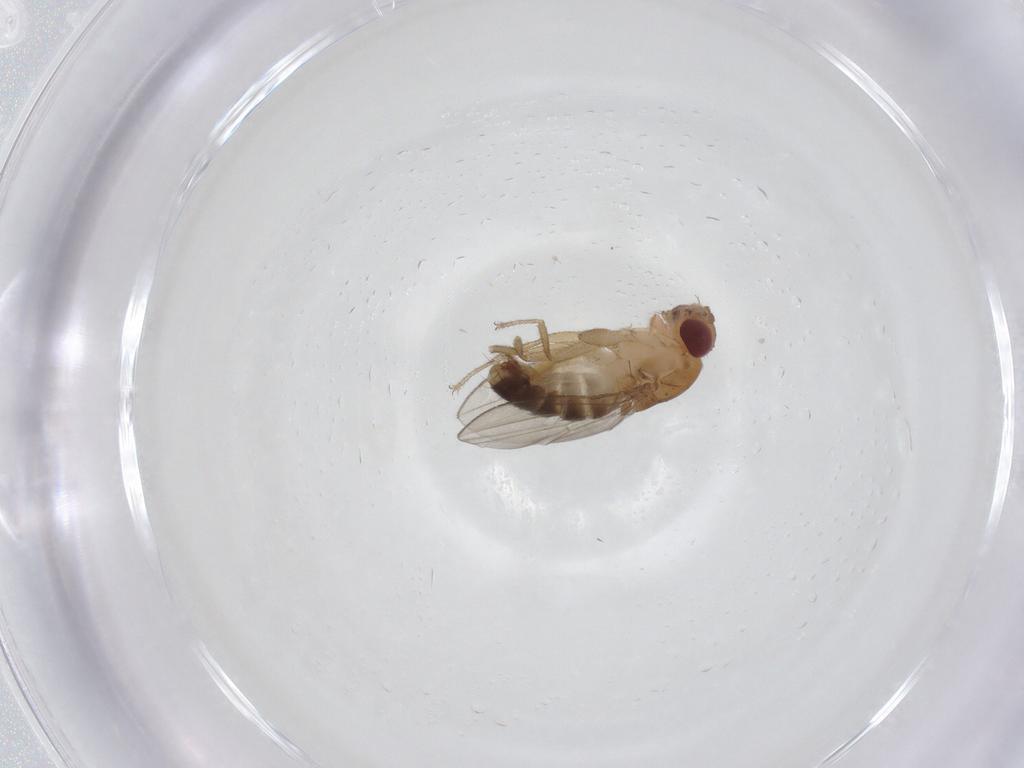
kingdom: Animalia
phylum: Arthropoda
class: Insecta
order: Diptera
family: Drosophilidae
